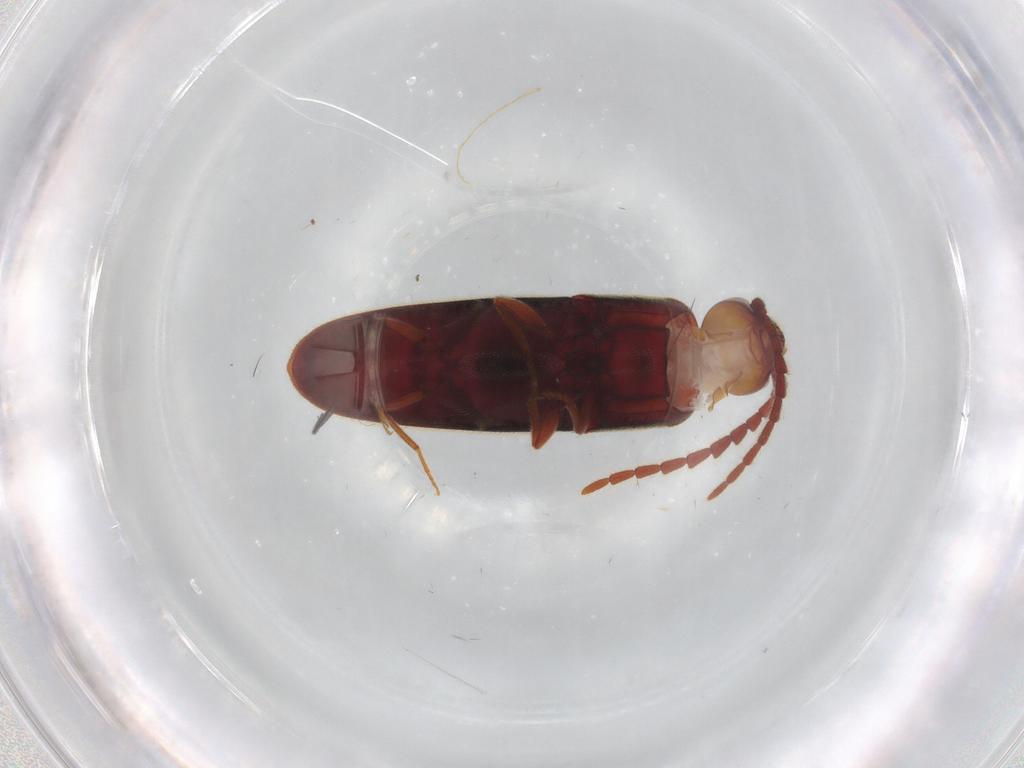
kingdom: Animalia
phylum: Arthropoda
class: Insecta
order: Coleoptera
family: Eucnemidae
